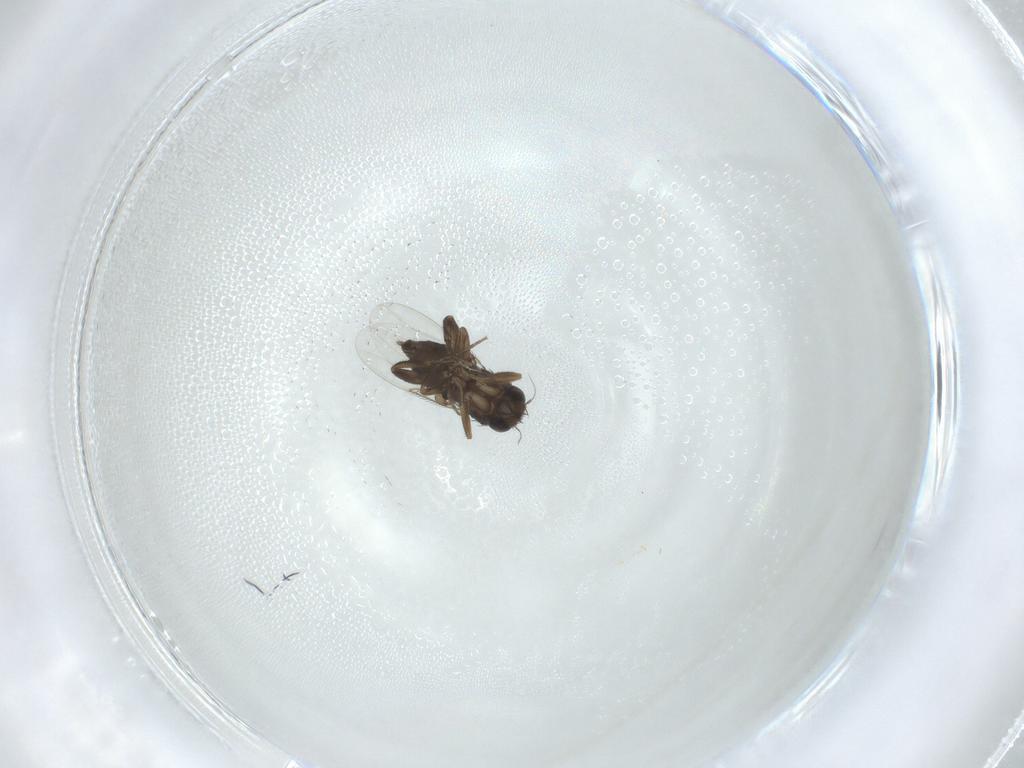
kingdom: Animalia
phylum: Arthropoda
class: Insecta
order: Diptera
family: Phoridae
